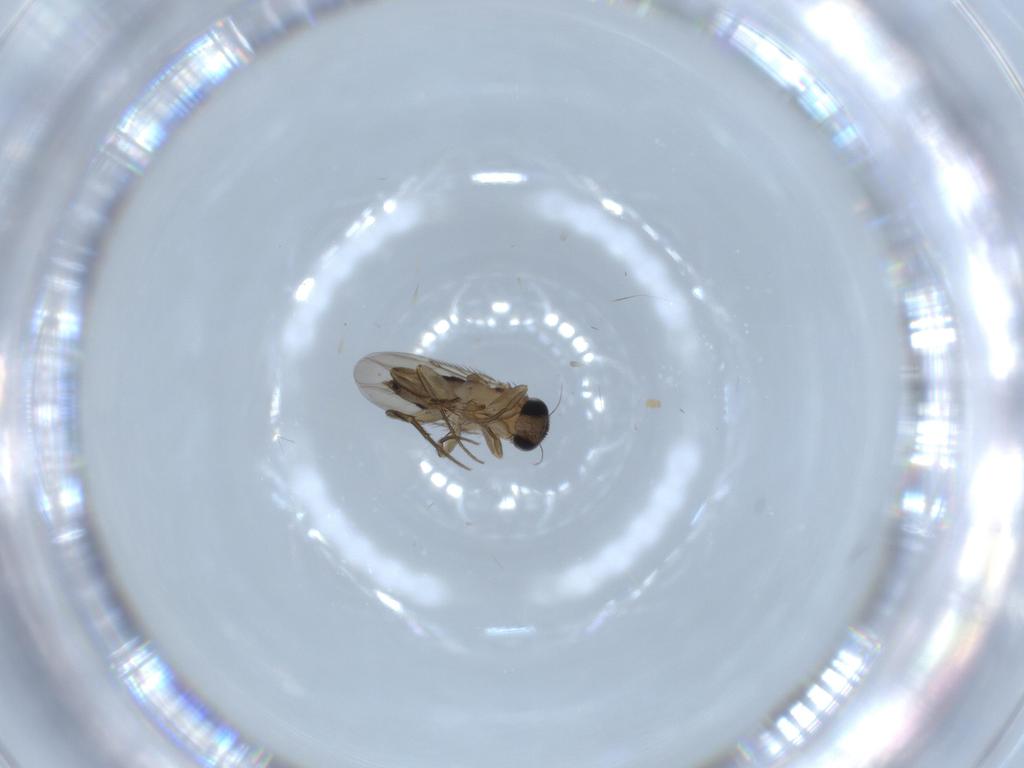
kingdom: Animalia
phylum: Arthropoda
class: Insecta
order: Diptera
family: Phoridae
